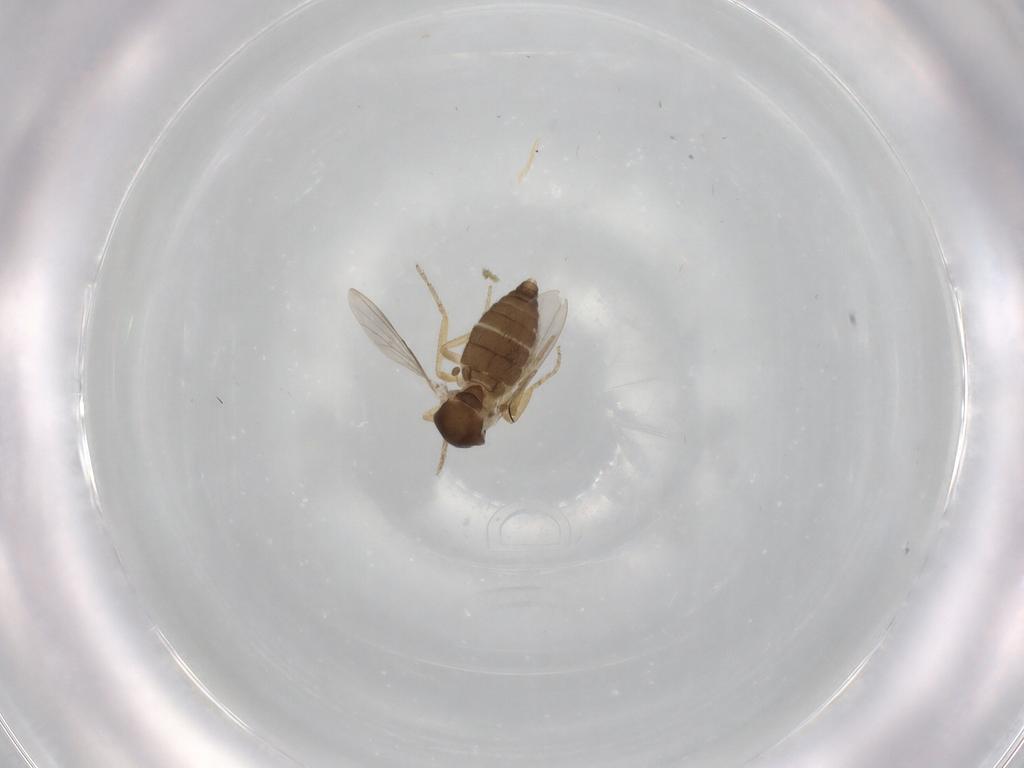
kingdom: Animalia
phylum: Arthropoda
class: Insecta
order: Diptera
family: Ceratopogonidae
